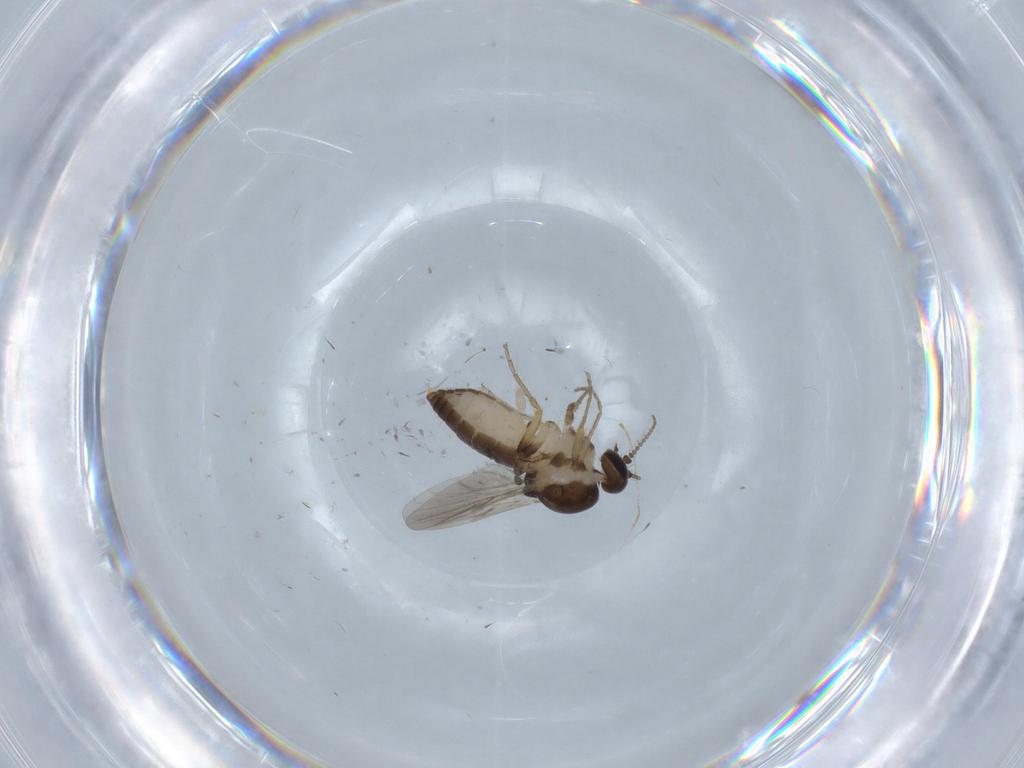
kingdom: Animalia
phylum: Arthropoda
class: Insecta
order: Diptera
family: Ceratopogonidae
